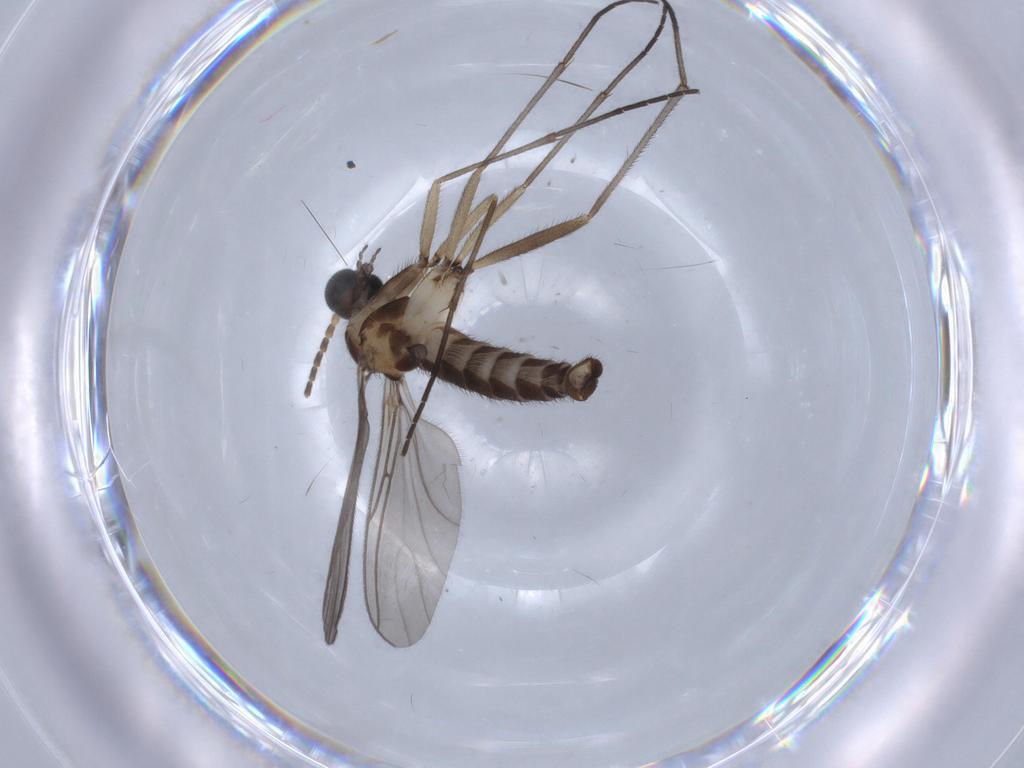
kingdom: Animalia
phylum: Arthropoda
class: Insecta
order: Diptera
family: Sciaridae
